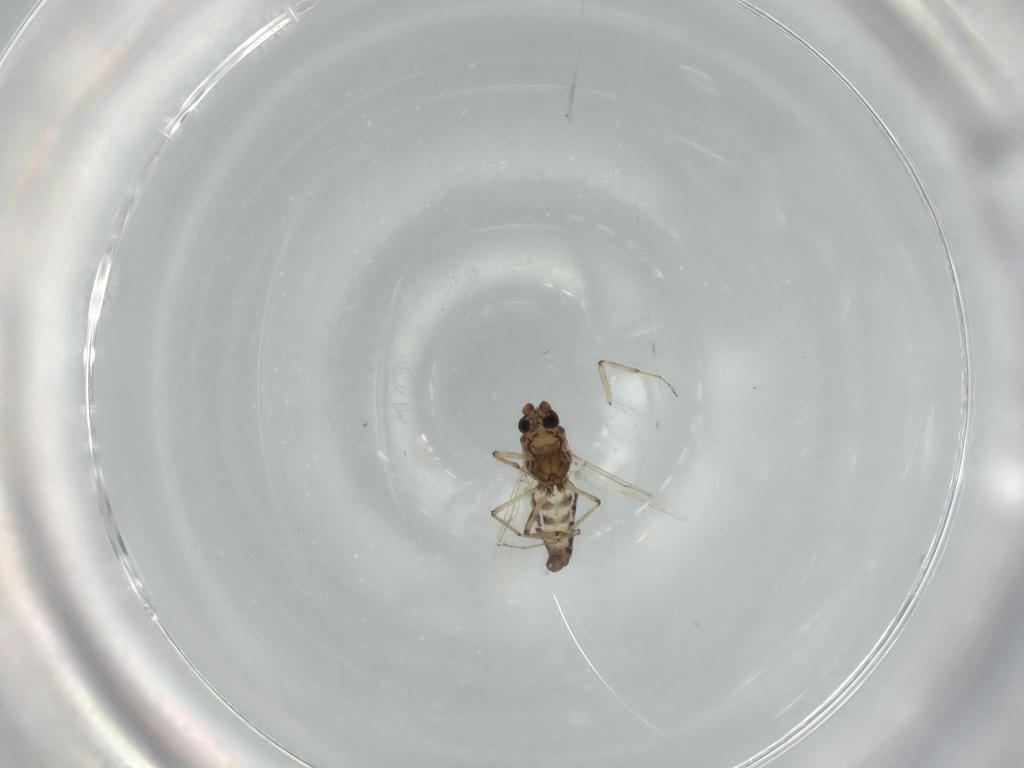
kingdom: Animalia
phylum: Arthropoda
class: Insecta
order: Diptera
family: Ceratopogonidae
